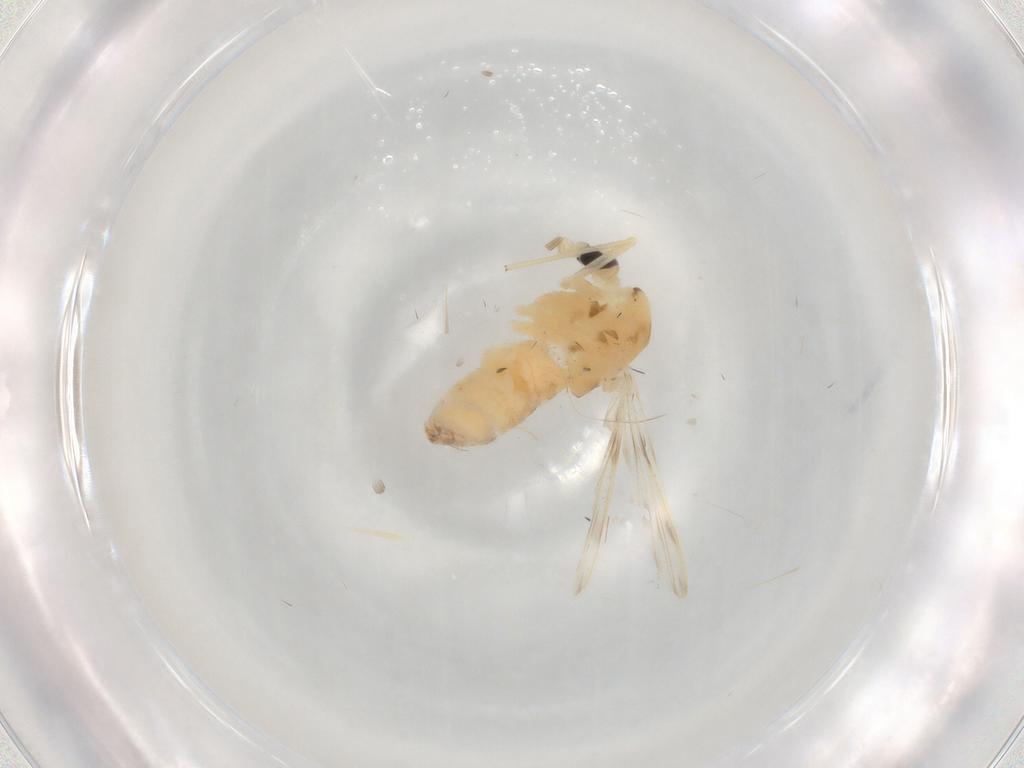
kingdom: Animalia
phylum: Arthropoda
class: Insecta
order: Diptera
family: Chironomidae
